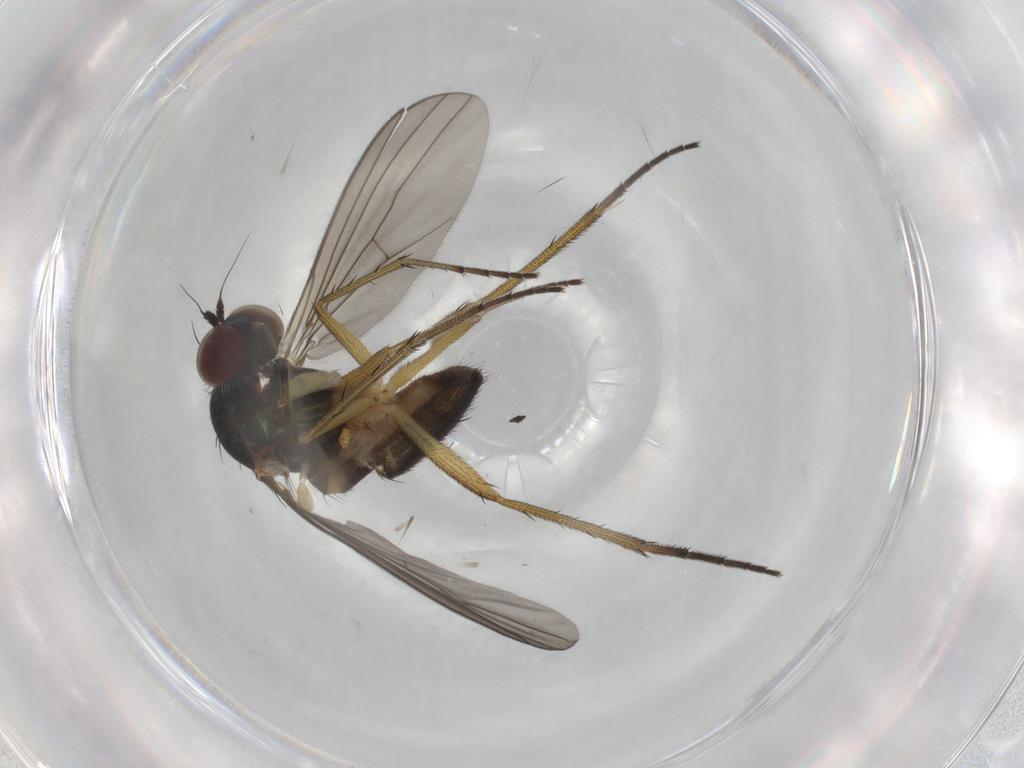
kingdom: Animalia
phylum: Arthropoda
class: Insecta
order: Diptera
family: Dolichopodidae
